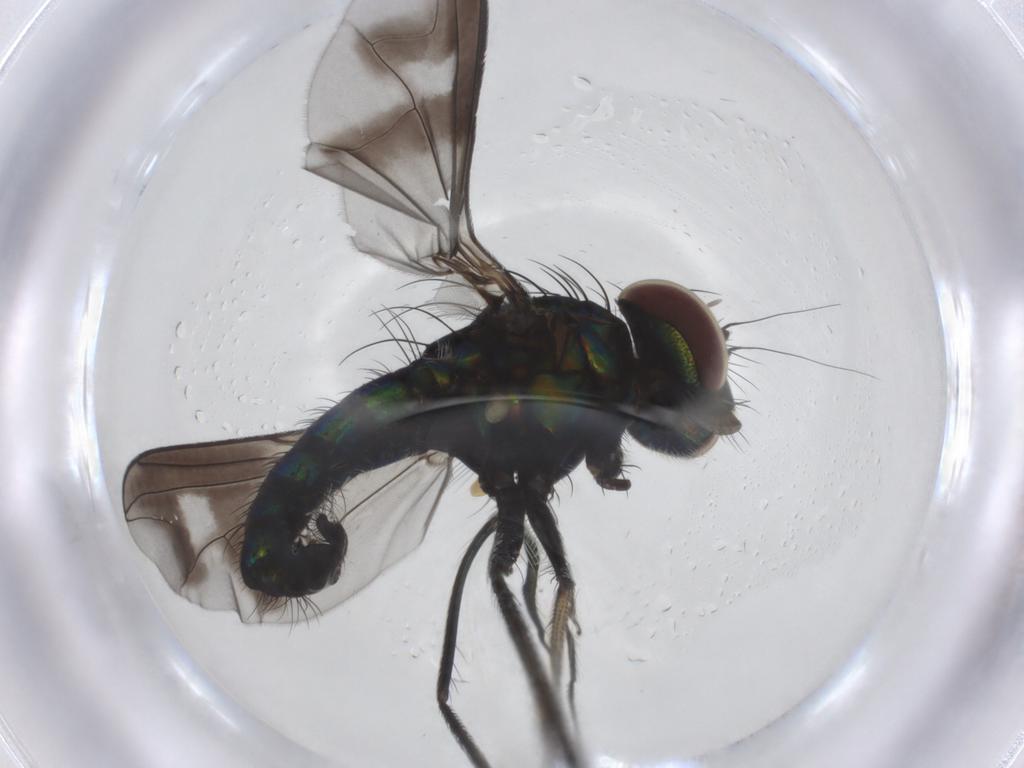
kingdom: Animalia
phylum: Arthropoda
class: Insecta
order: Diptera
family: Dolichopodidae
